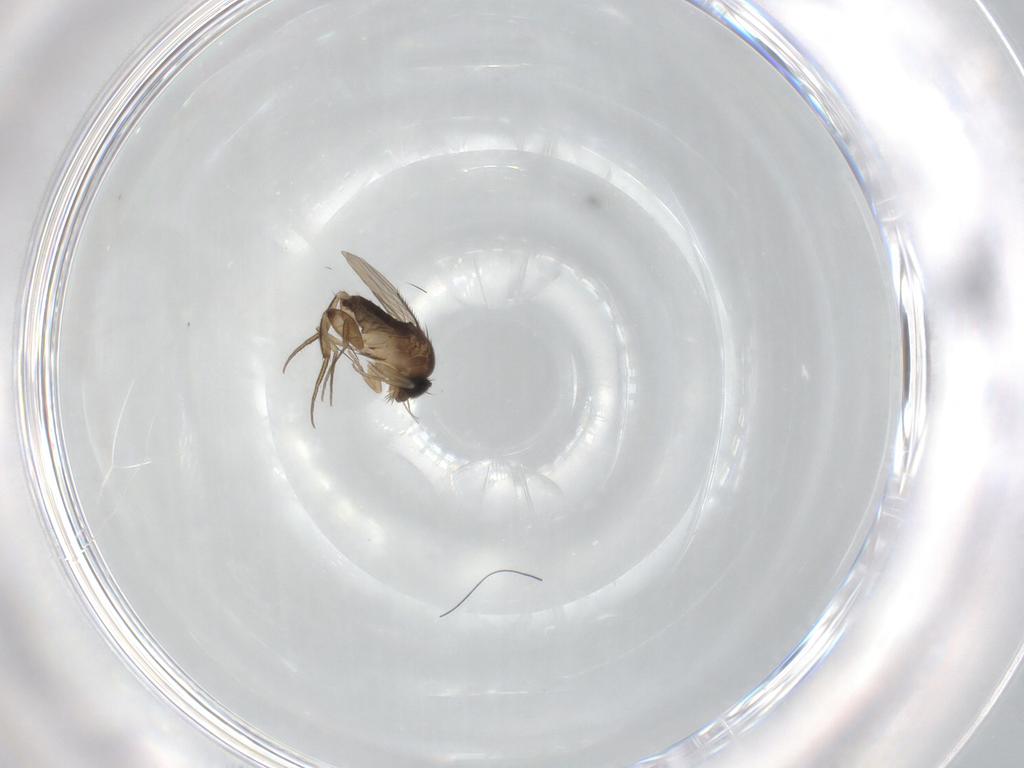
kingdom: Animalia
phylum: Arthropoda
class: Insecta
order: Diptera
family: Phoridae
